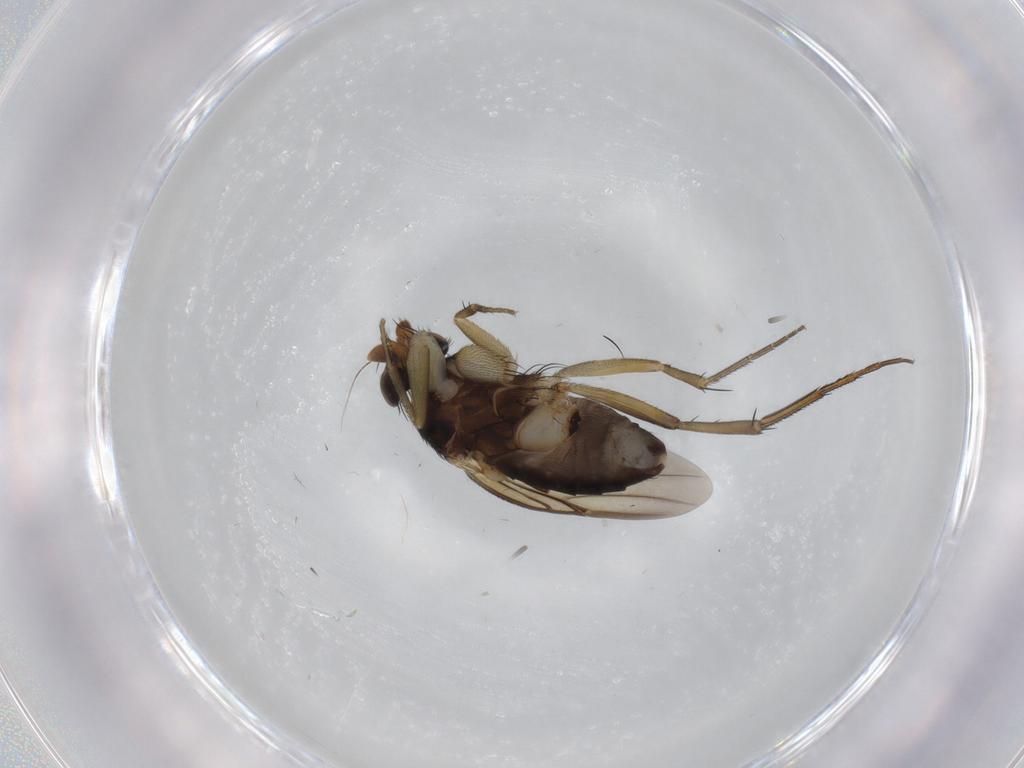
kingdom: Animalia
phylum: Arthropoda
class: Insecta
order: Diptera
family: Phoridae
